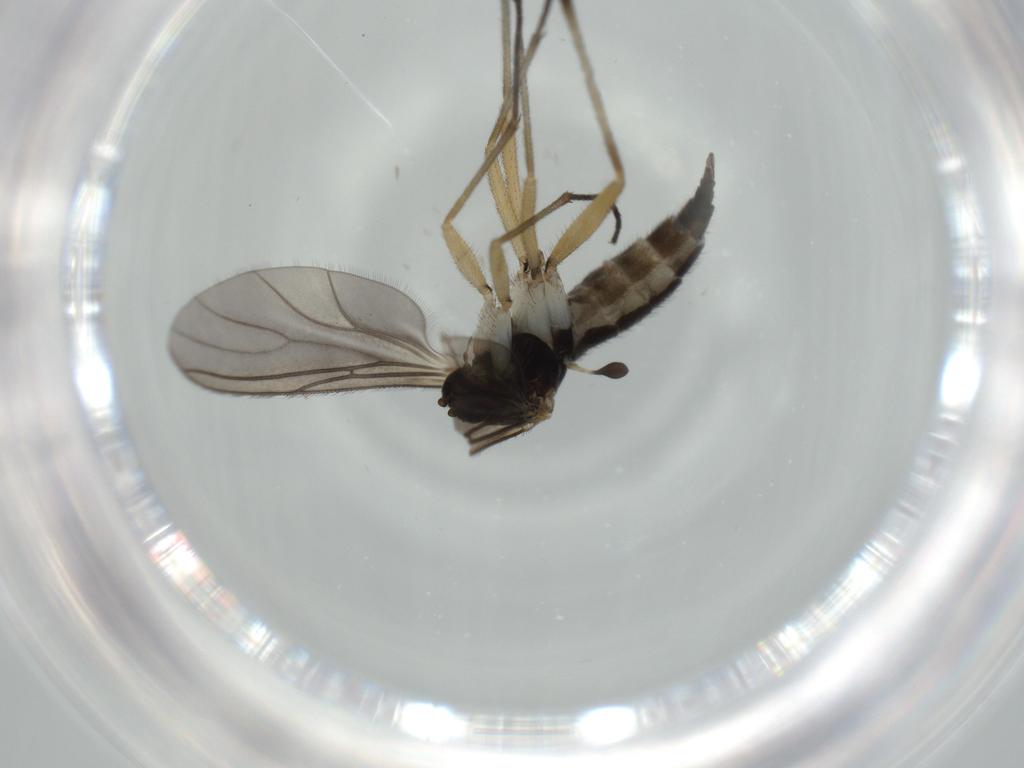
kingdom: Animalia
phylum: Arthropoda
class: Insecta
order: Diptera
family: Sciaridae
